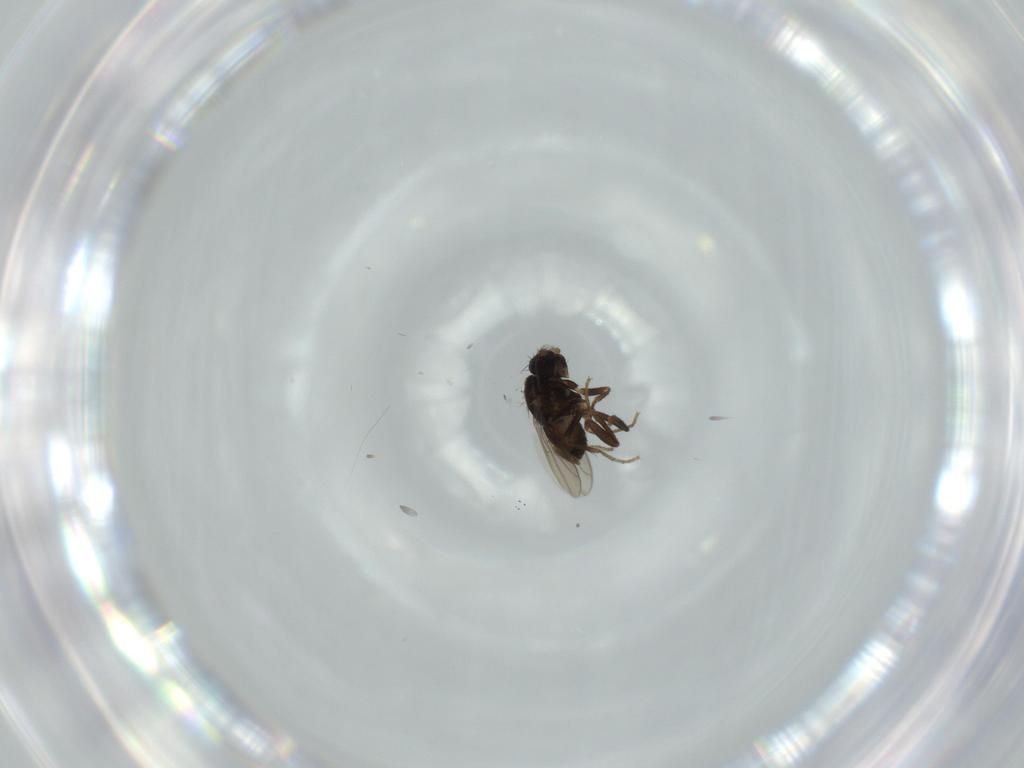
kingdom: Animalia
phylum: Arthropoda
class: Insecta
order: Diptera
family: Sphaeroceridae
